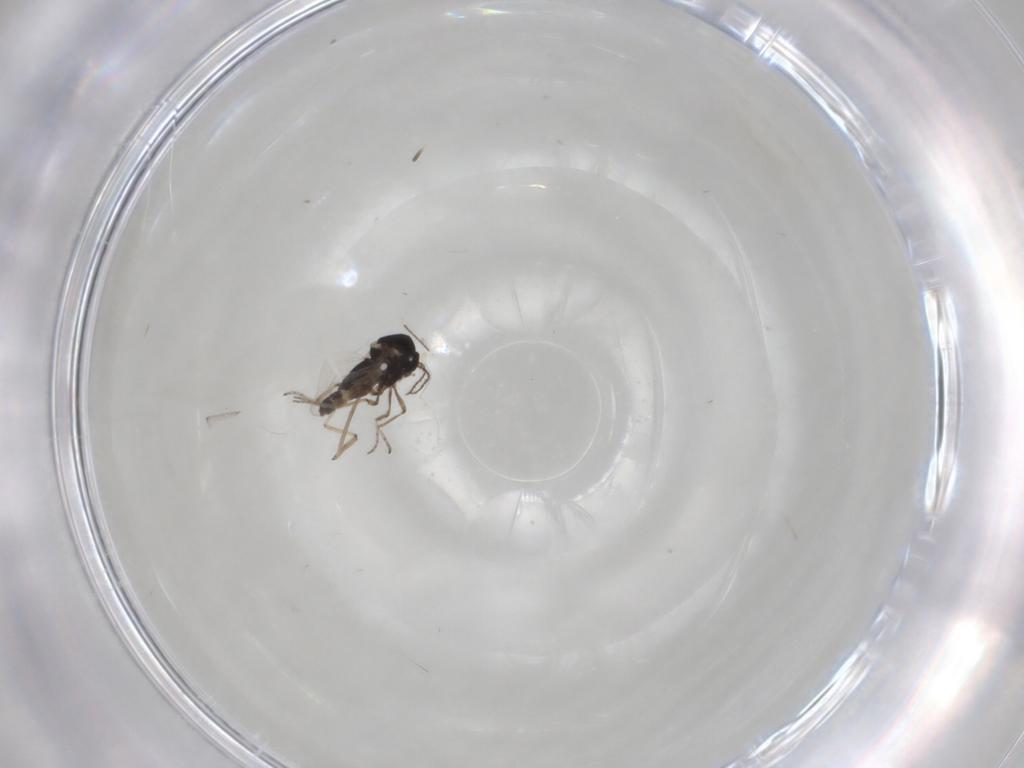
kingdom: Animalia
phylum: Arthropoda
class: Insecta
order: Diptera
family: Ceratopogonidae
